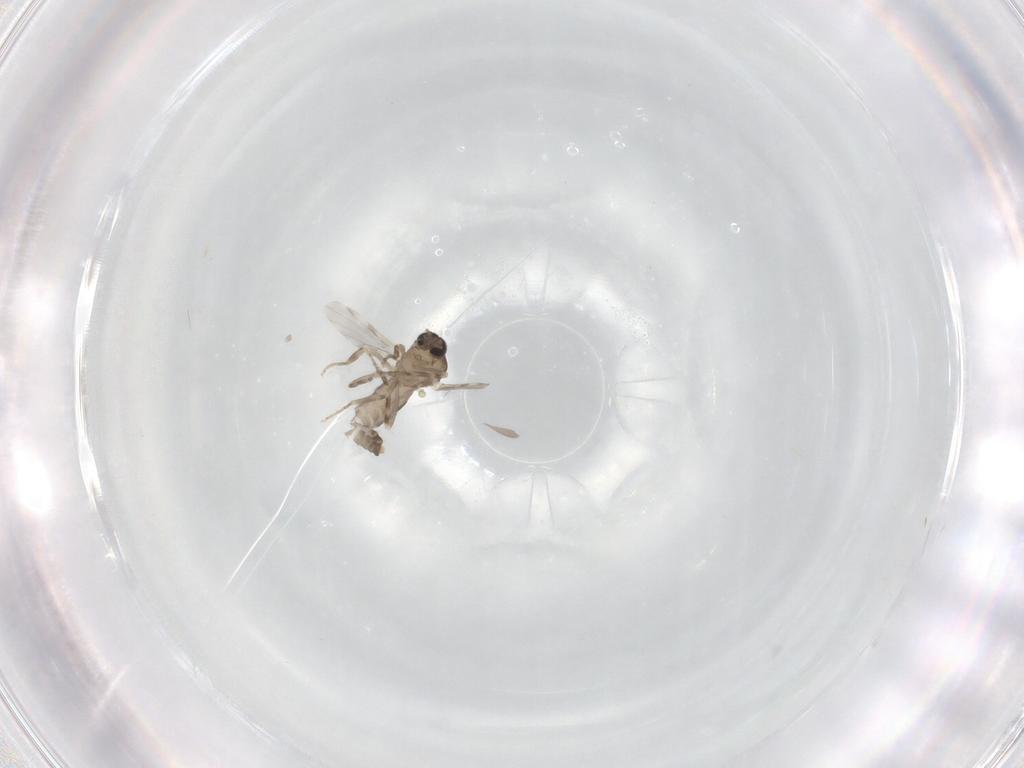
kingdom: Animalia
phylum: Arthropoda
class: Insecta
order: Diptera
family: Ceratopogonidae
